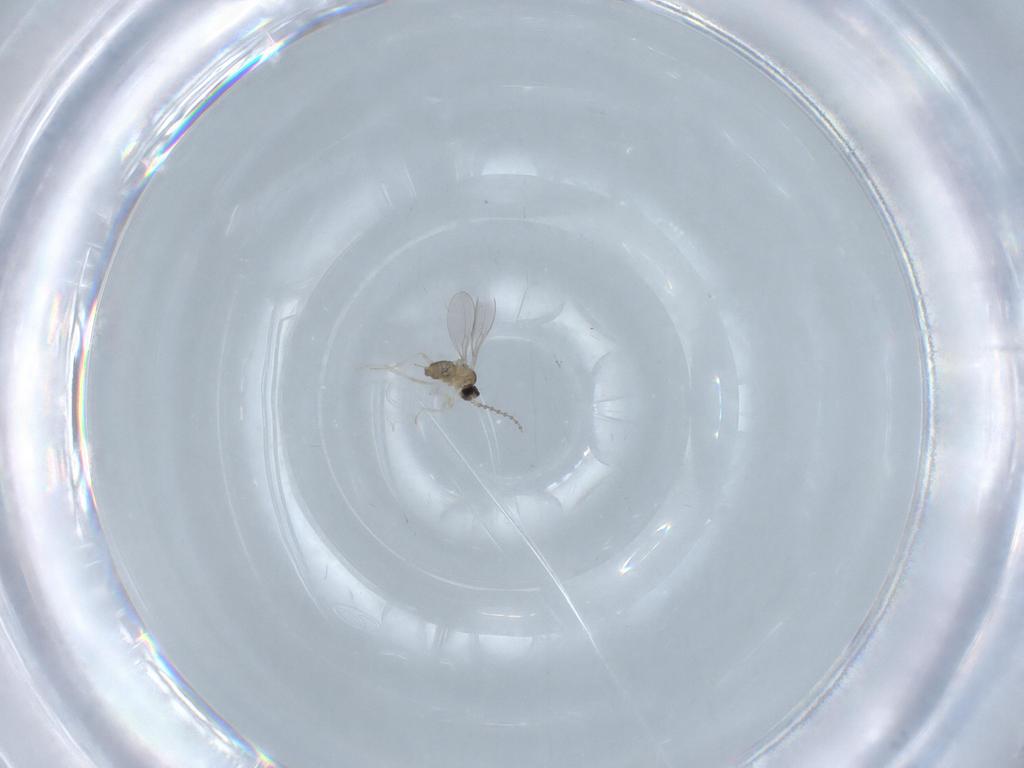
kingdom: Animalia
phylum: Arthropoda
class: Insecta
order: Diptera
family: Cecidomyiidae
